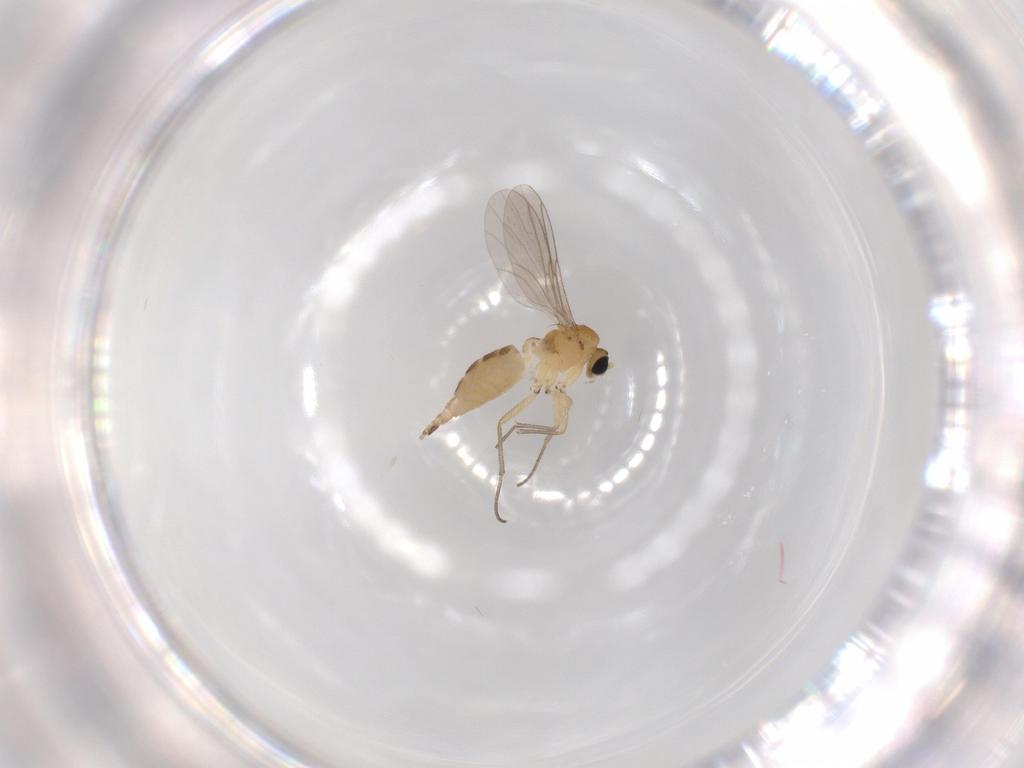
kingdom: Animalia
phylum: Arthropoda
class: Insecta
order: Diptera
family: Sciaridae
